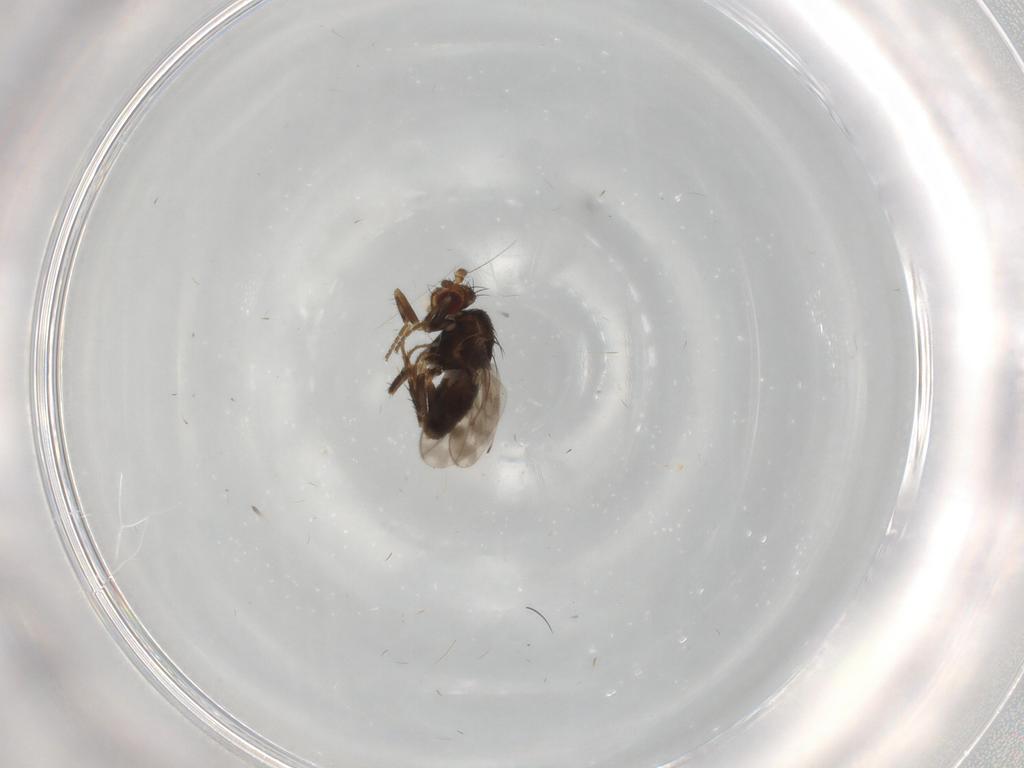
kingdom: Animalia
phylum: Arthropoda
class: Insecta
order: Diptera
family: Sphaeroceridae
